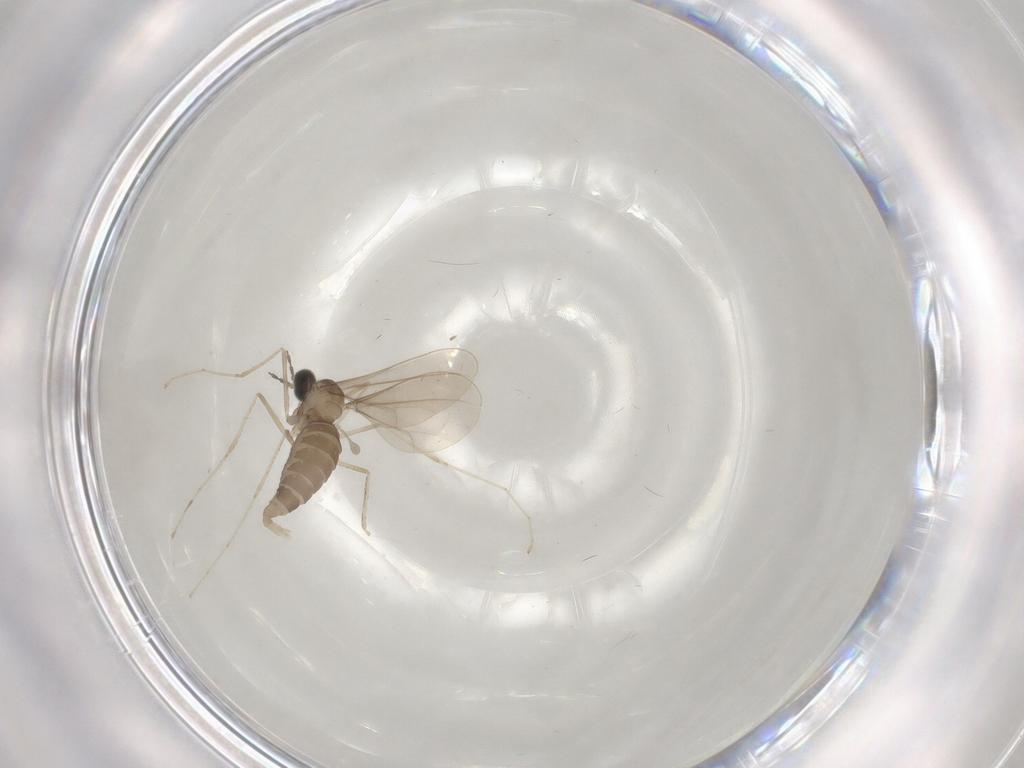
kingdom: Animalia
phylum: Arthropoda
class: Insecta
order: Diptera
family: Cecidomyiidae
